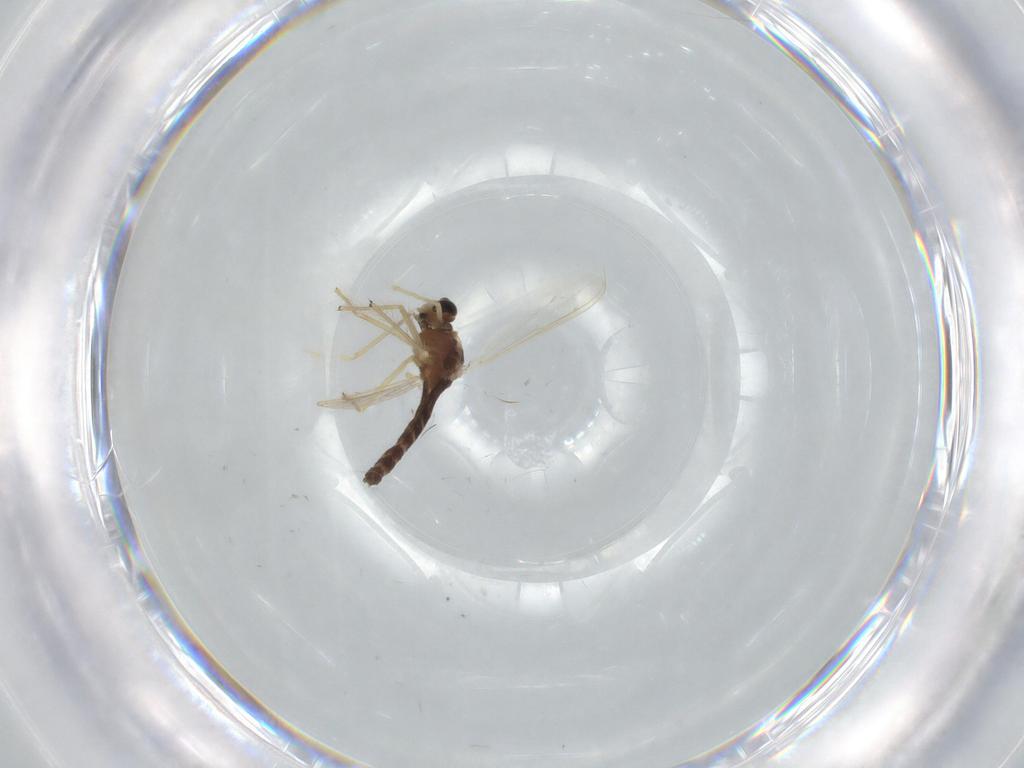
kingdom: Animalia
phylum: Arthropoda
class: Insecta
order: Diptera
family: Chironomidae
